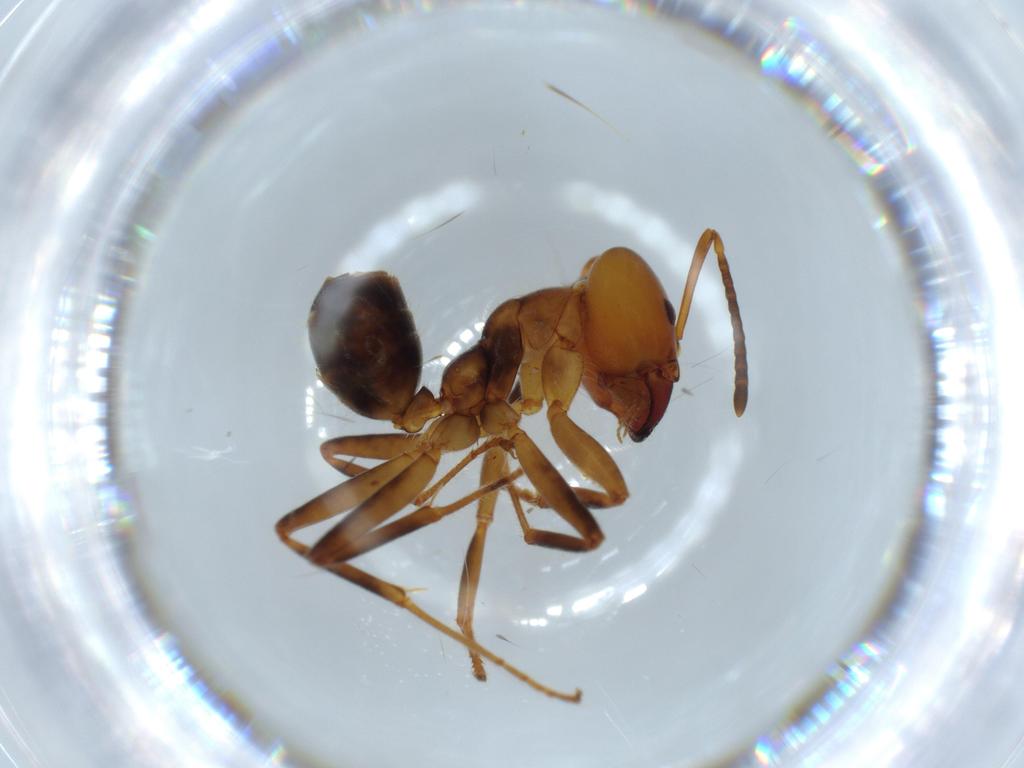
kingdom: Animalia
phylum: Arthropoda
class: Insecta
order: Hymenoptera
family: Formicidae
